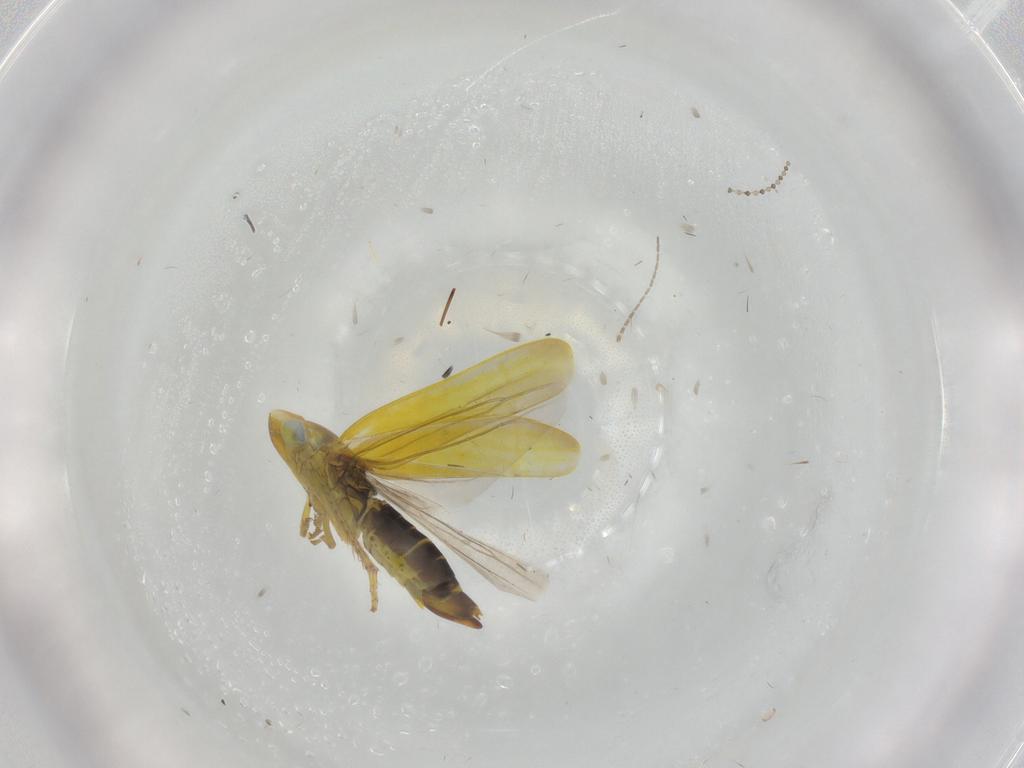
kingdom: Animalia
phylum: Arthropoda
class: Insecta
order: Hemiptera
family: Cicadellidae
